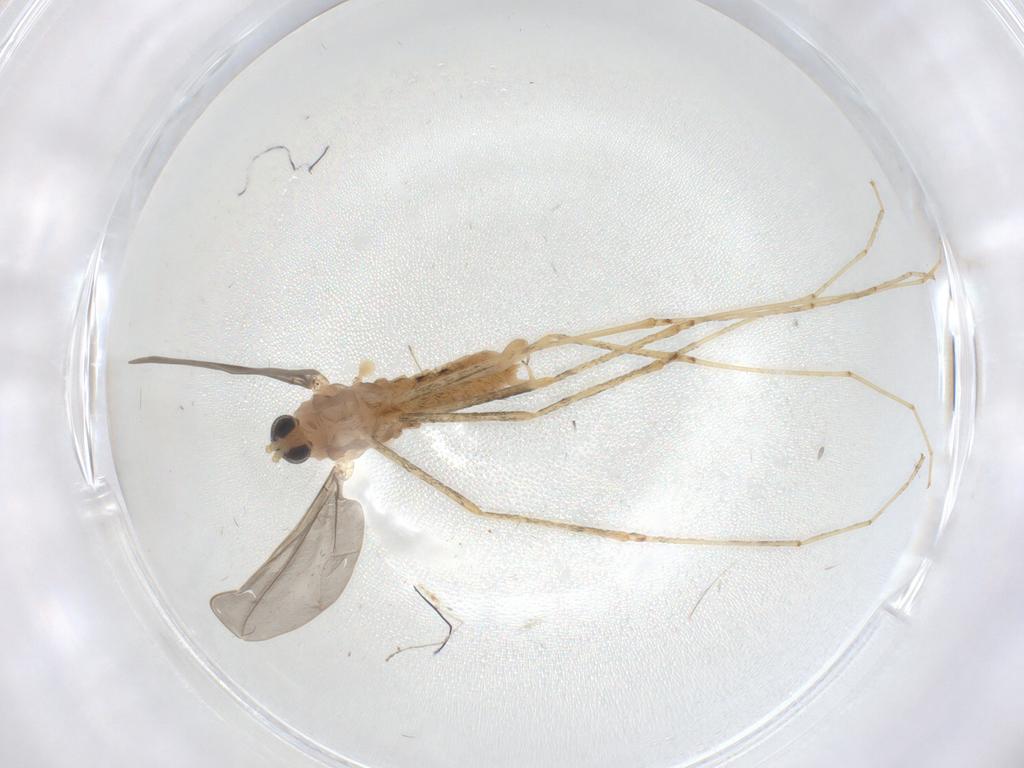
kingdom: Animalia
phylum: Arthropoda
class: Insecta
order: Diptera
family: Cecidomyiidae
